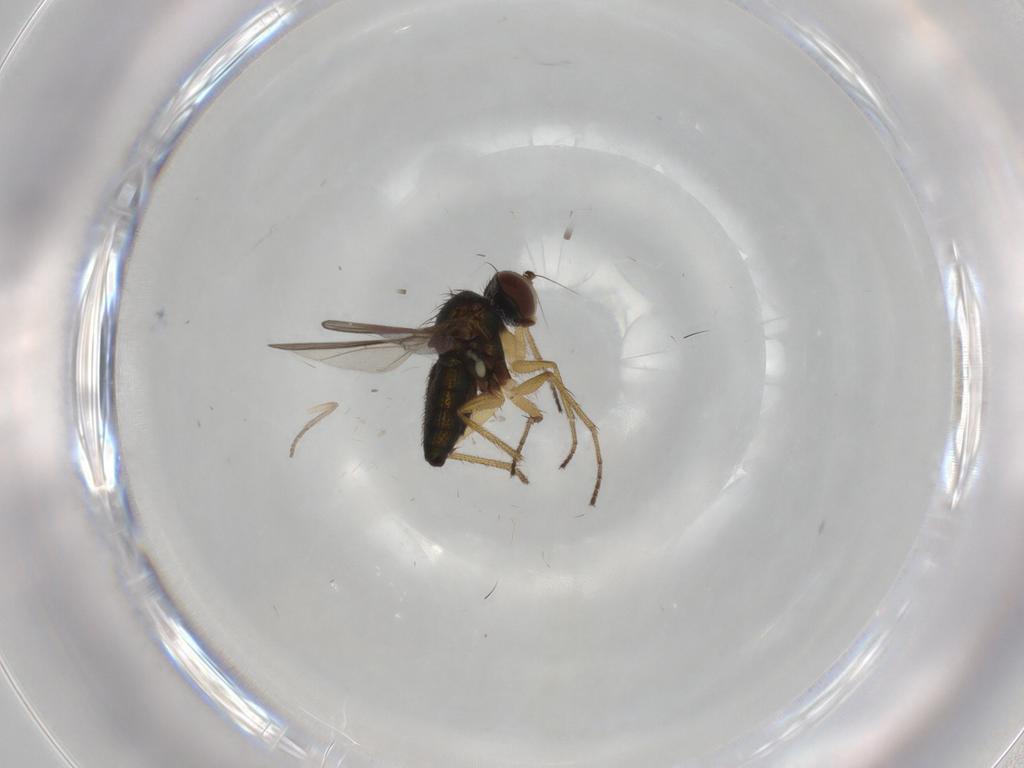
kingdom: Animalia
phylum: Arthropoda
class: Insecta
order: Diptera
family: Dolichopodidae
